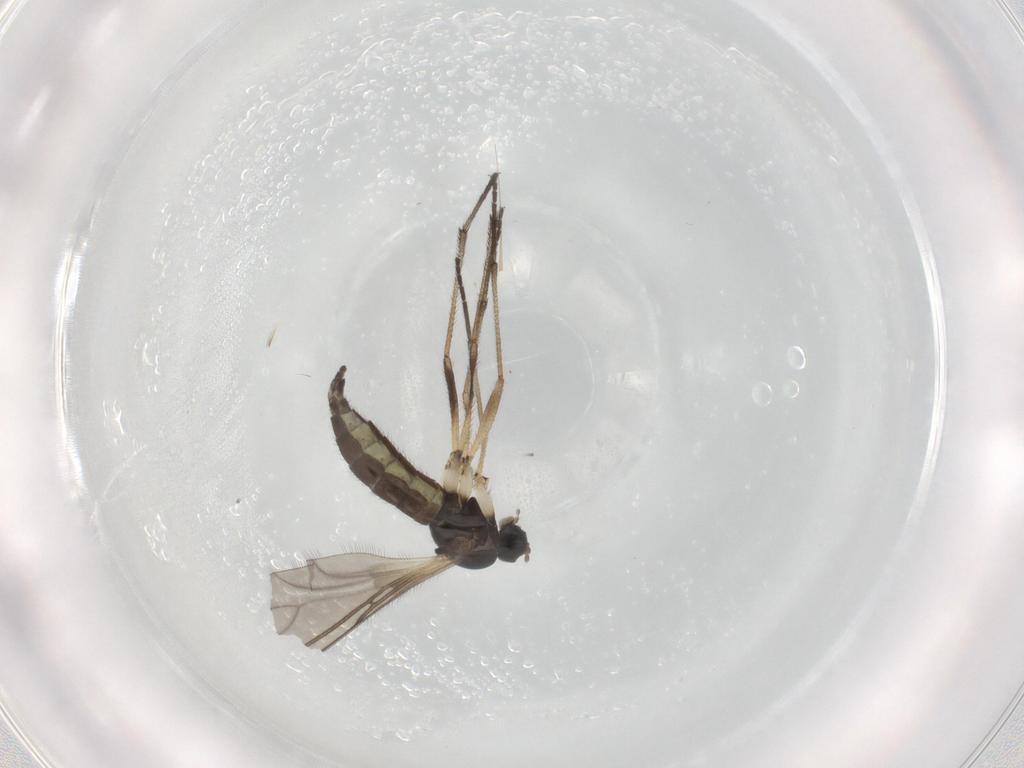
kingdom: Animalia
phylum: Arthropoda
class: Insecta
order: Diptera
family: Sciaridae
